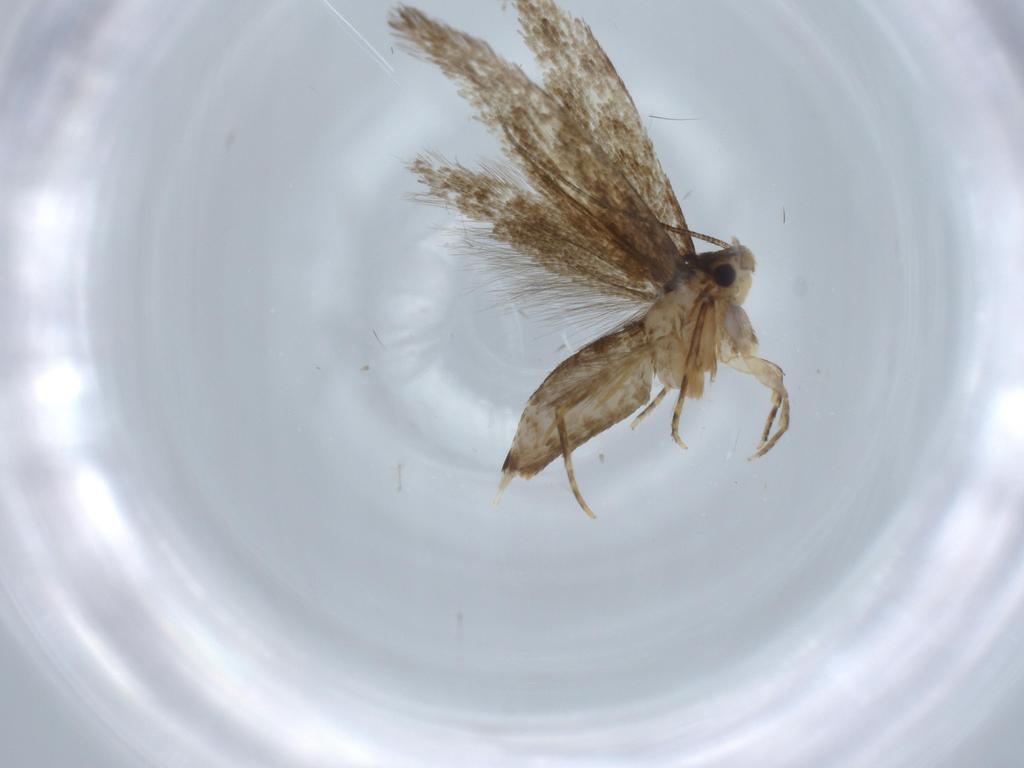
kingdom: Animalia
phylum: Arthropoda
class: Insecta
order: Lepidoptera
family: Tineidae
